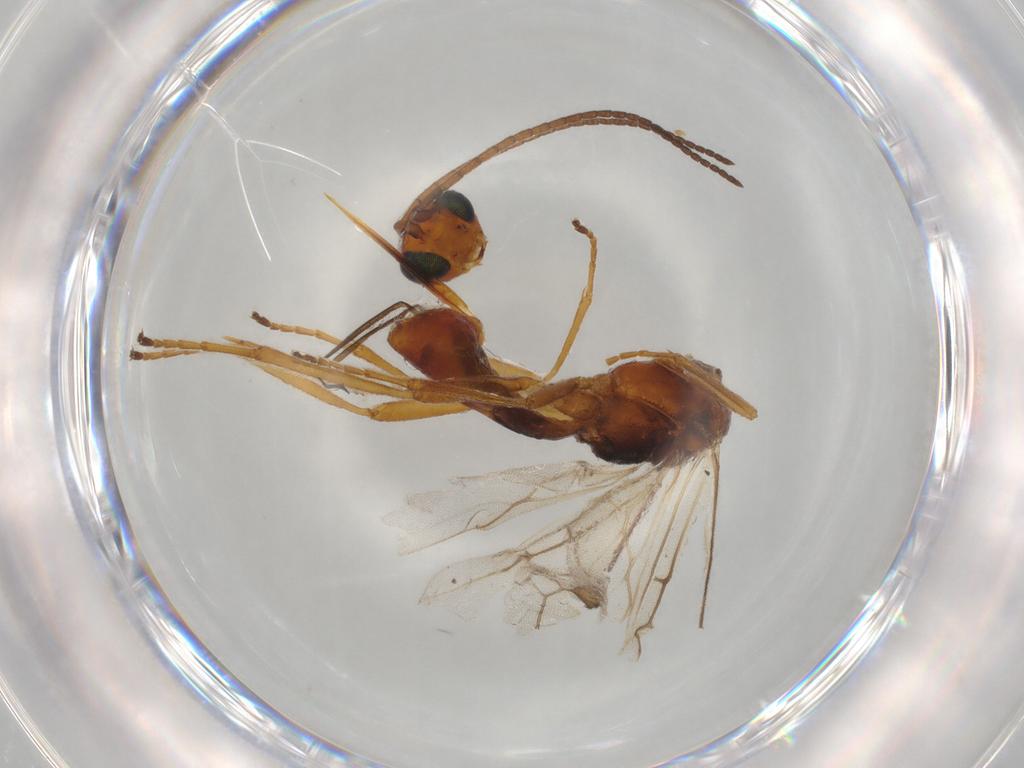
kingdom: Animalia
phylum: Arthropoda
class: Insecta
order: Hymenoptera
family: Braconidae
